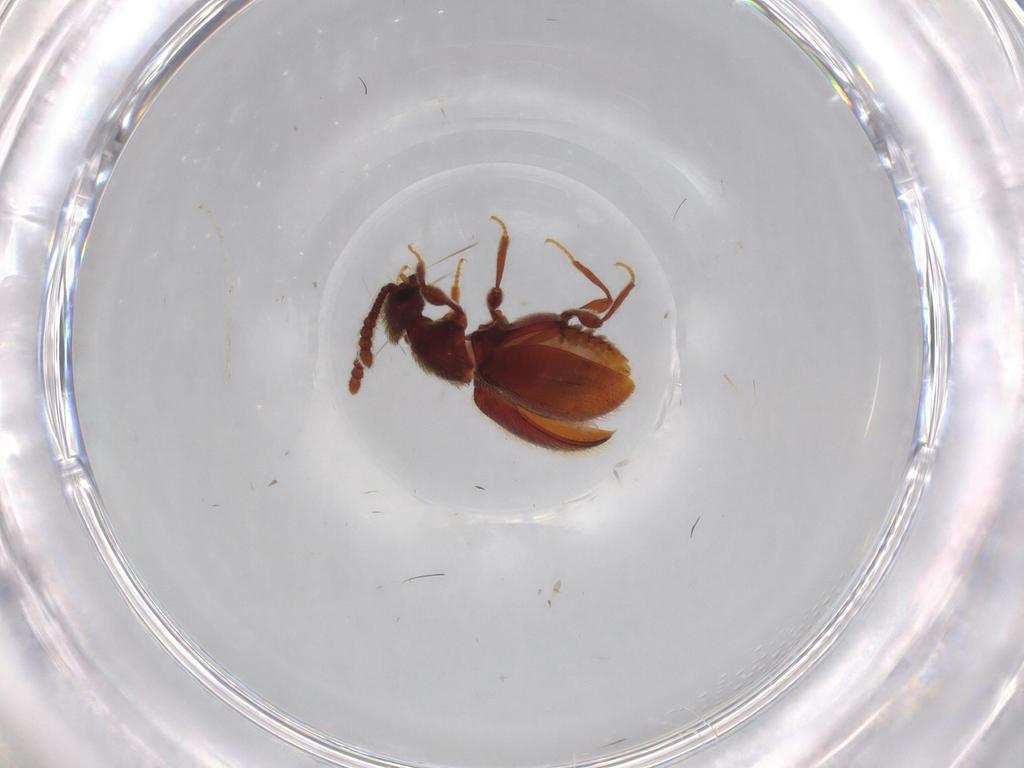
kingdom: Animalia
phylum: Arthropoda
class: Insecta
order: Coleoptera
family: Staphylinidae
